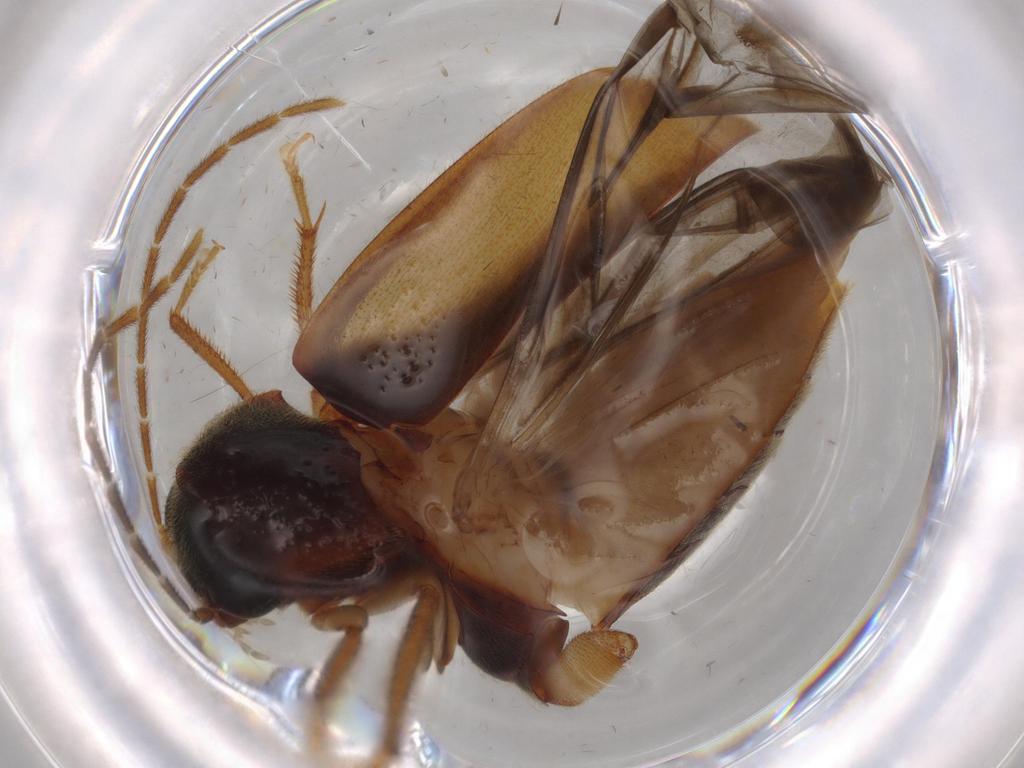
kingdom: Animalia
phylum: Arthropoda
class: Insecta
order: Coleoptera
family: Ptilodactylidae
